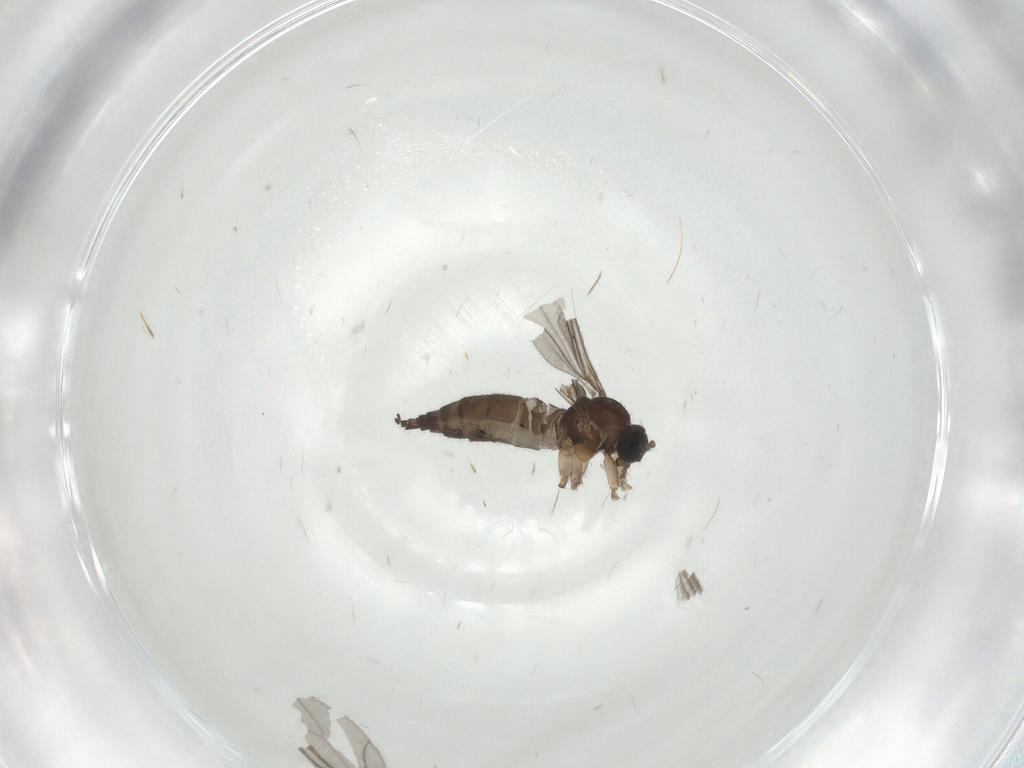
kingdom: Animalia
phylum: Arthropoda
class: Insecta
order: Diptera
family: Sciaridae
